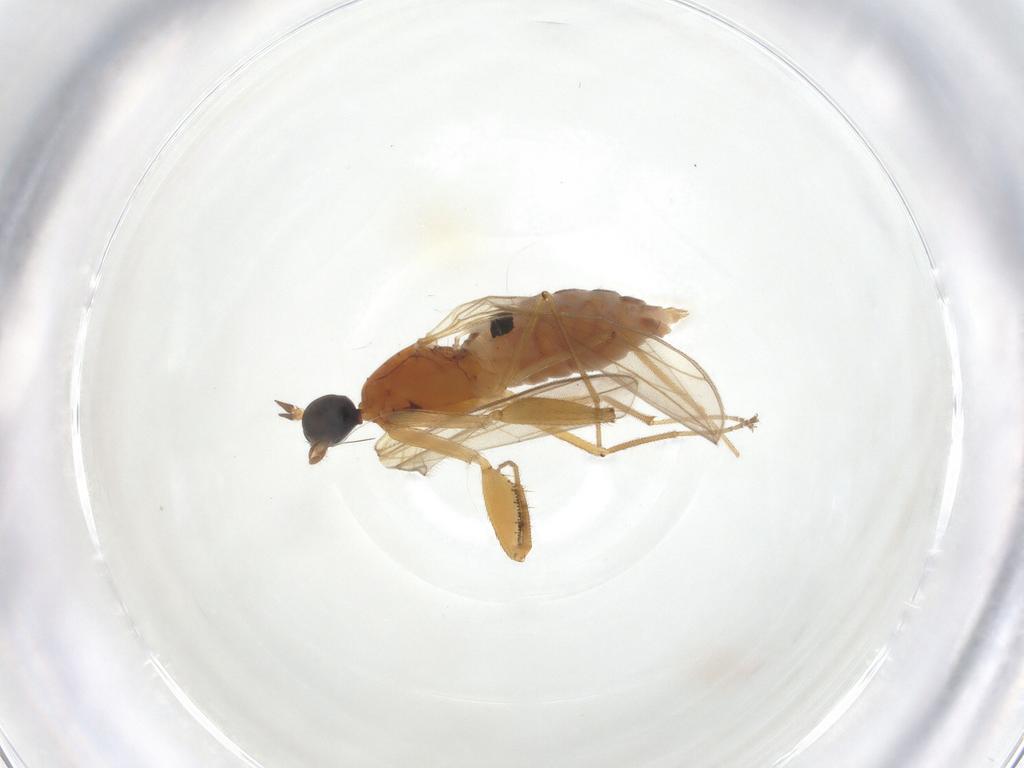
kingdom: Animalia
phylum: Arthropoda
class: Insecta
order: Diptera
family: Empididae
